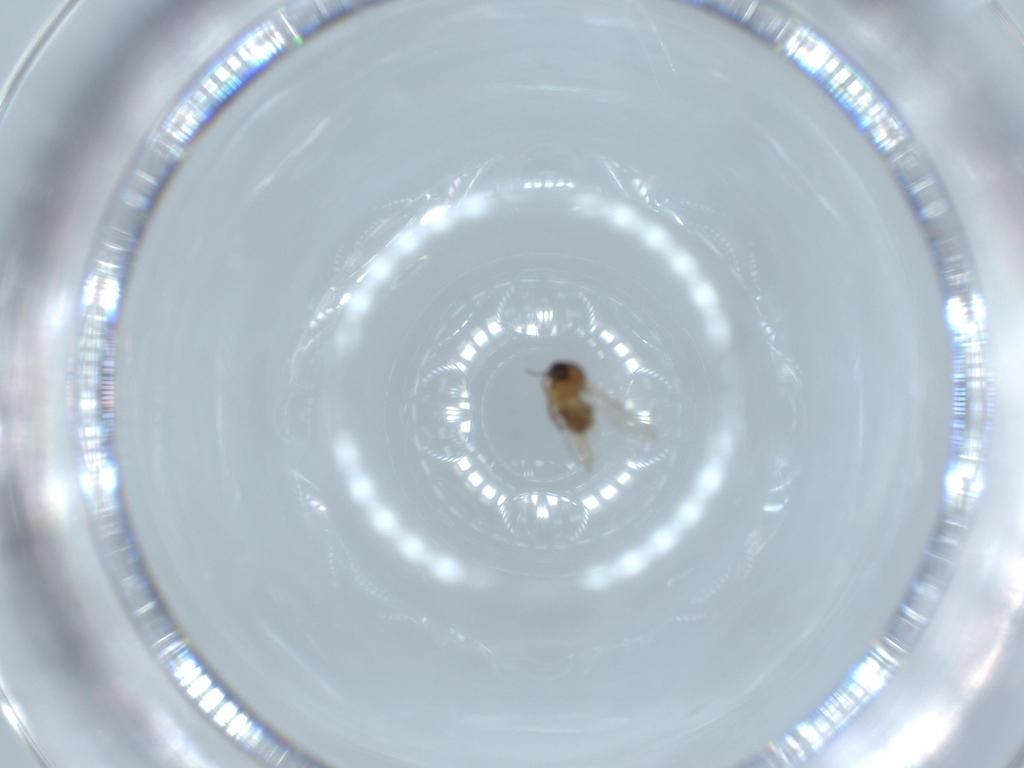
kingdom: Animalia
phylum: Arthropoda
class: Insecta
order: Diptera
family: Ceratopogonidae
